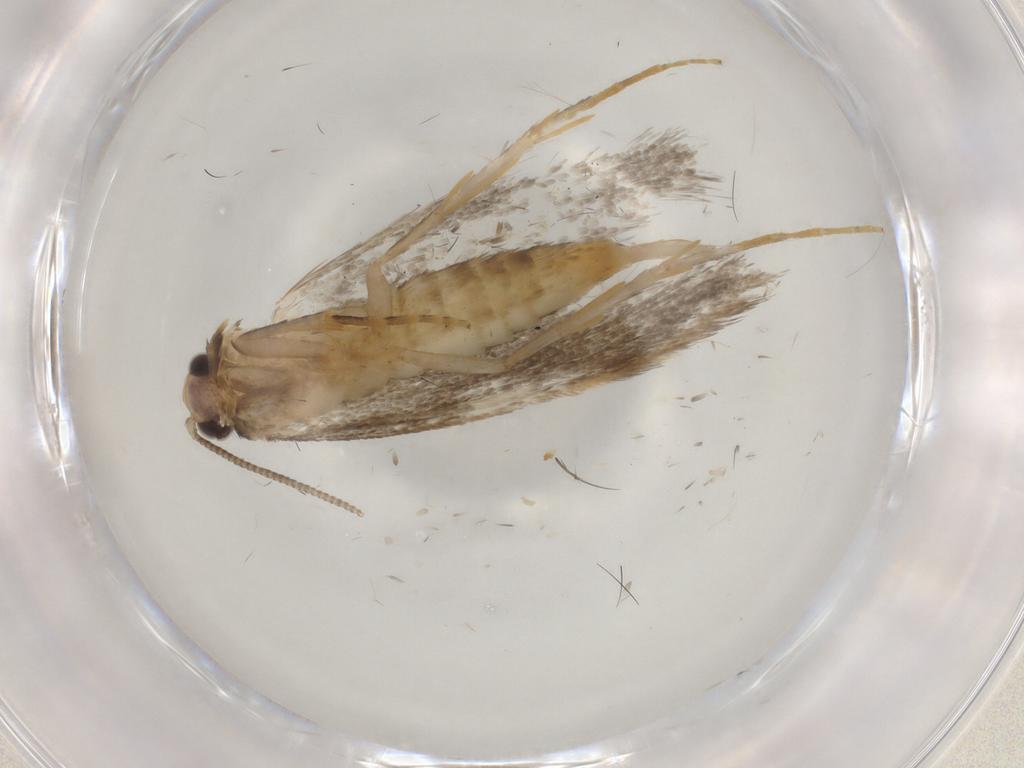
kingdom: Animalia
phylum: Arthropoda
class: Insecta
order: Lepidoptera
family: Tineidae
